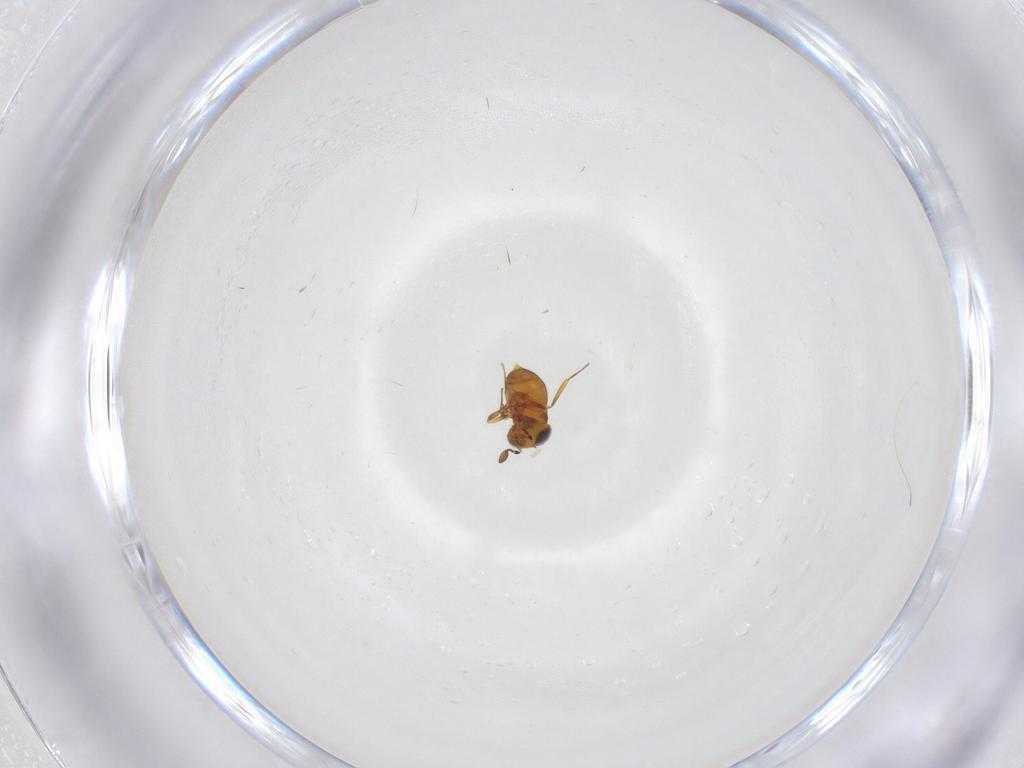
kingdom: Animalia
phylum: Arthropoda
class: Insecta
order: Hymenoptera
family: Scelionidae
